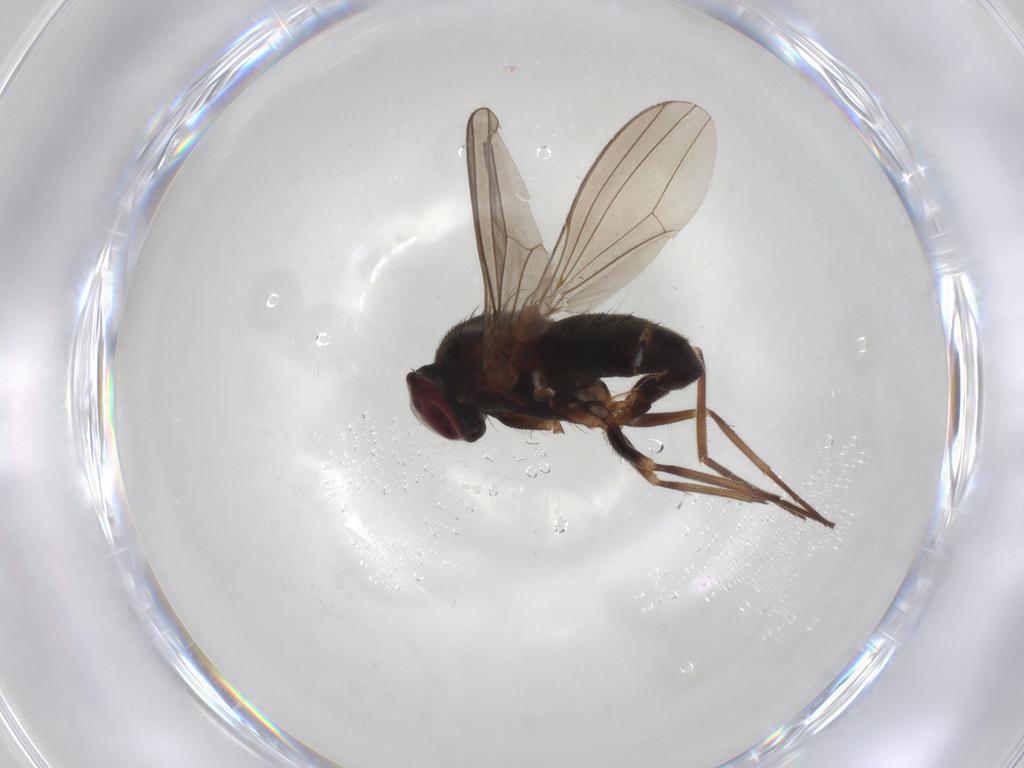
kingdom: Animalia
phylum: Arthropoda
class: Insecta
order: Diptera
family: Dolichopodidae
